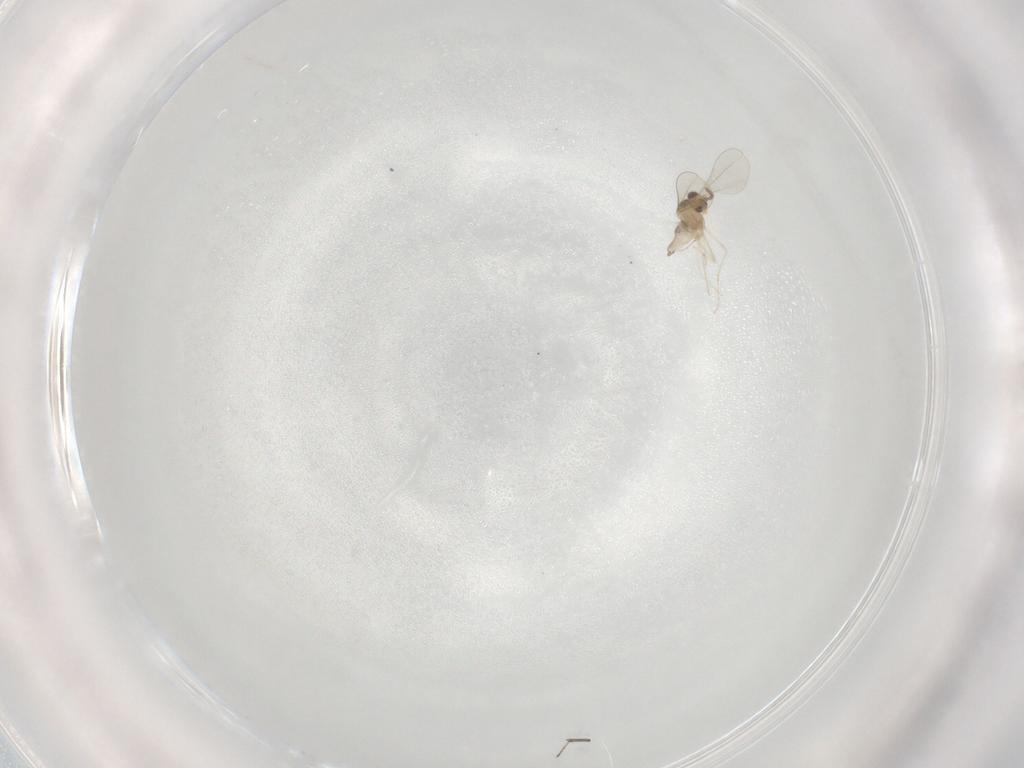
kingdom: Animalia
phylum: Arthropoda
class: Insecta
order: Diptera
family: Ceratopogonidae
